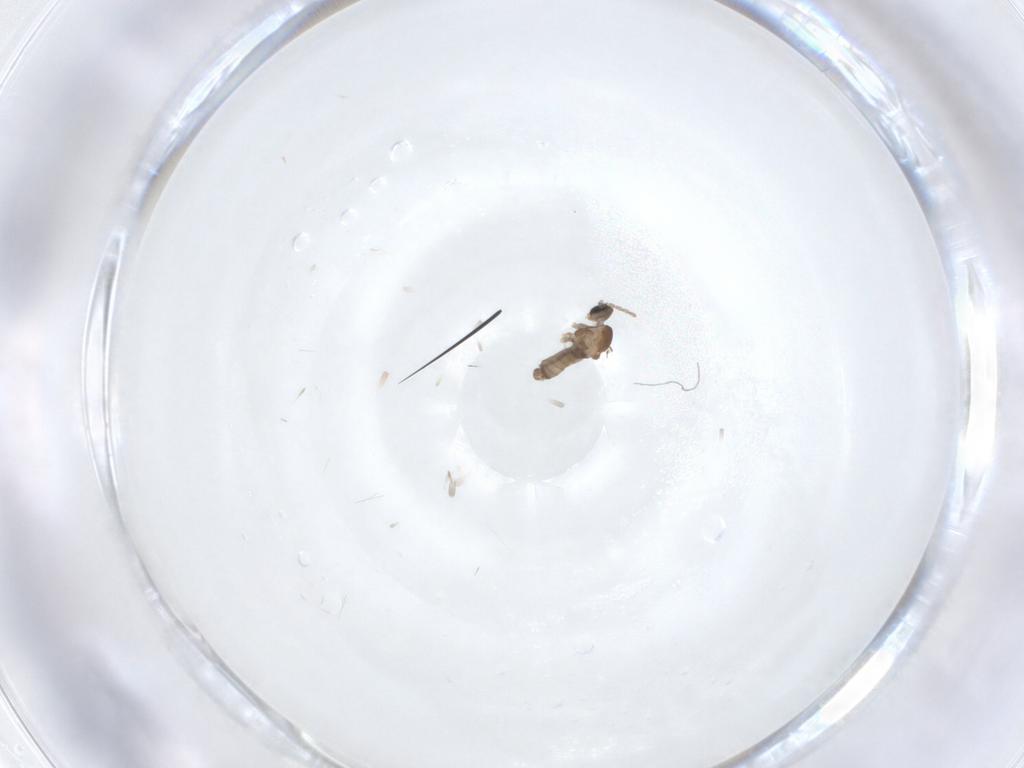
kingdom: Animalia
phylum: Arthropoda
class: Insecta
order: Diptera
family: Cecidomyiidae
